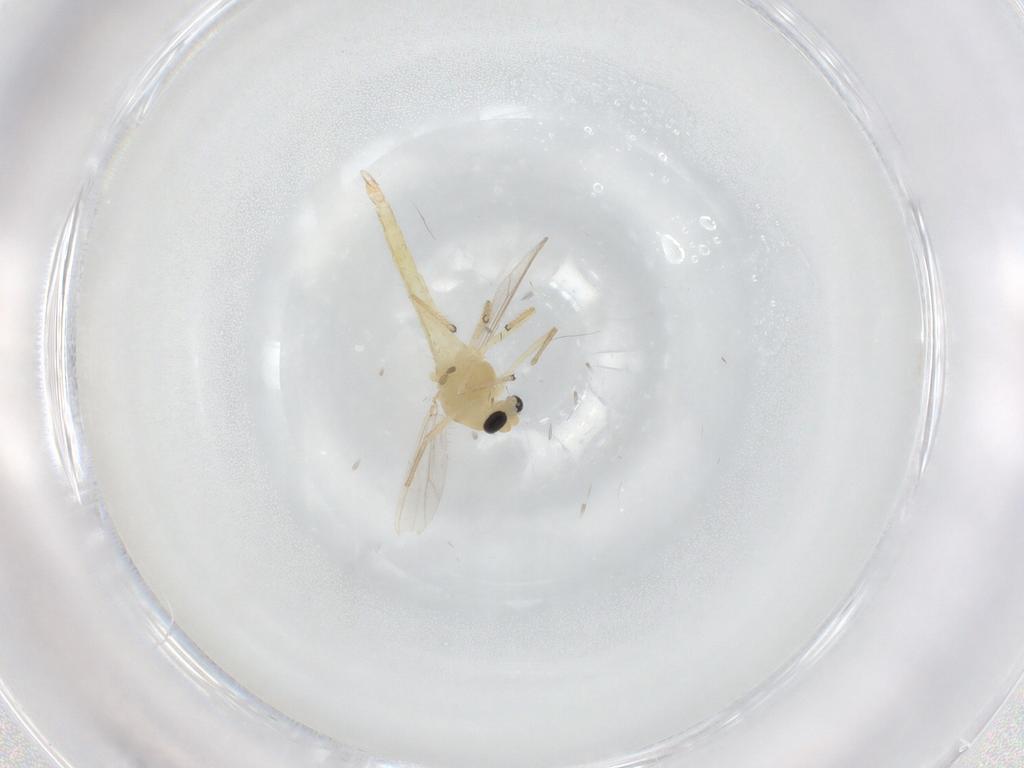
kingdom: Animalia
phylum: Arthropoda
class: Insecta
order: Diptera
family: Chironomidae
